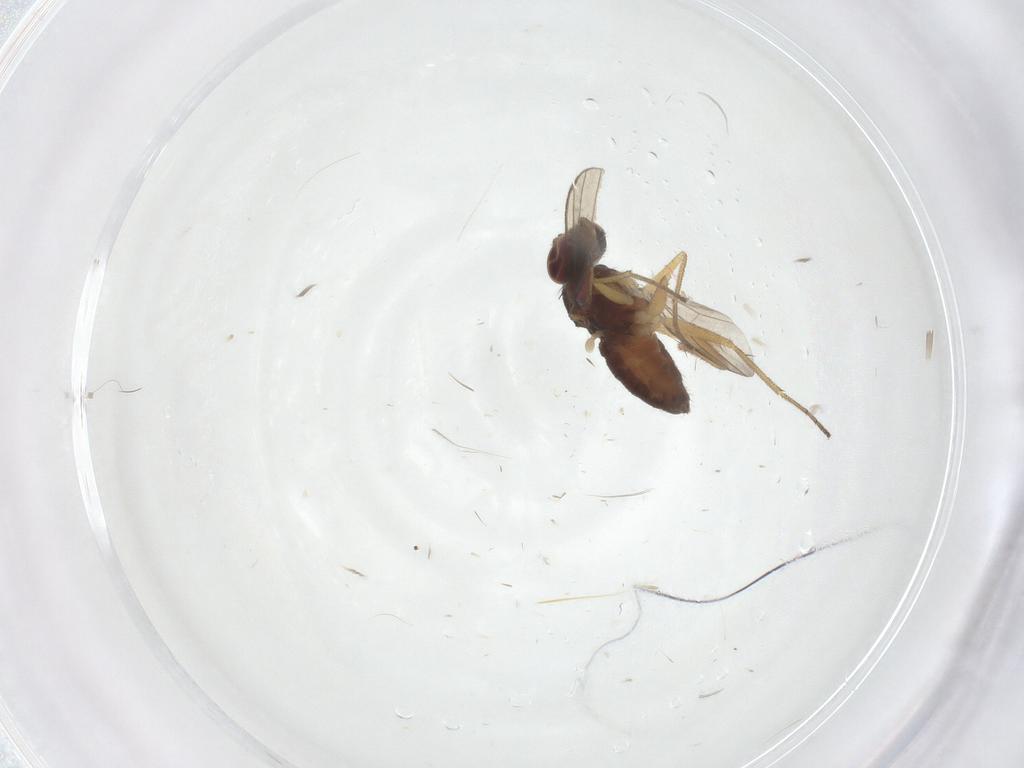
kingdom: Animalia
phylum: Arthropoda
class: Insecta
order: Diptera
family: Dolichopodidae
